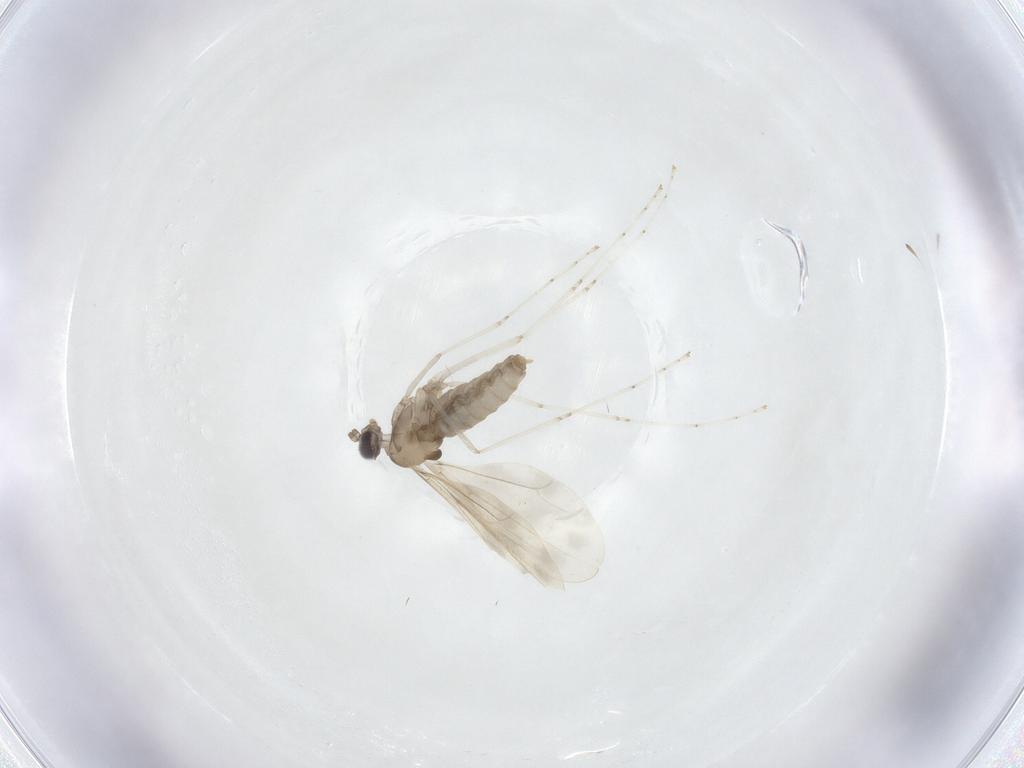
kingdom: Animalia
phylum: Arthropoda
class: Insecta
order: Diptera
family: Cecidomyiidae
